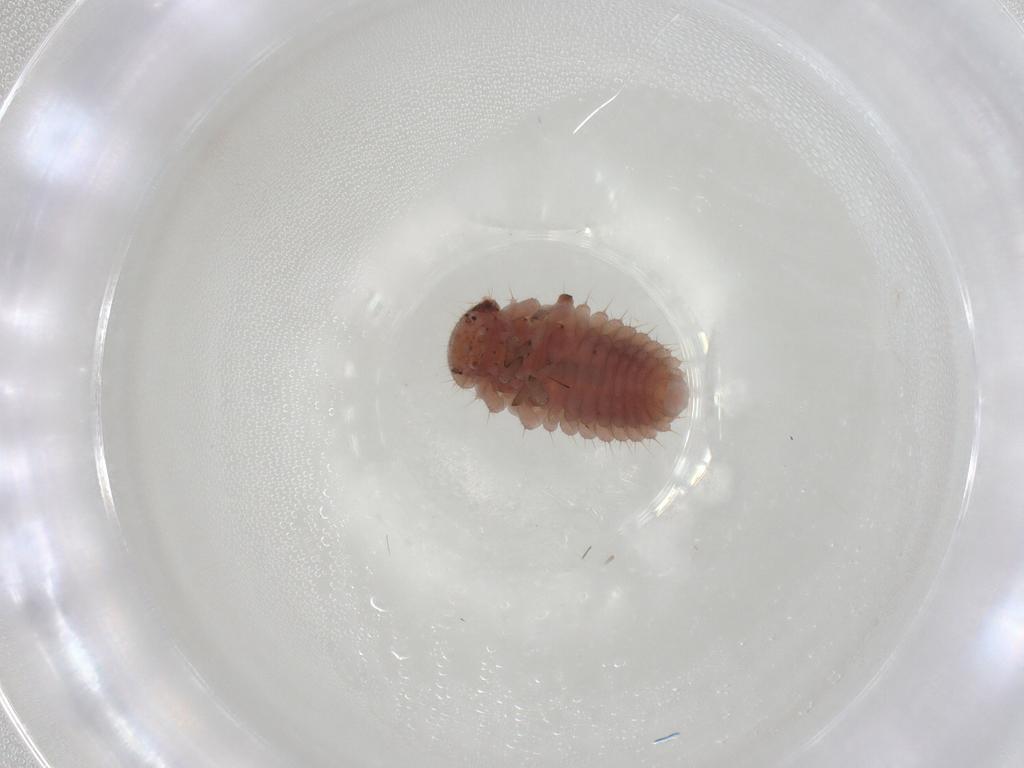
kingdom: Animalia
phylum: Arthropoda
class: Insecta
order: Coleoptera
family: Coccinellidae
